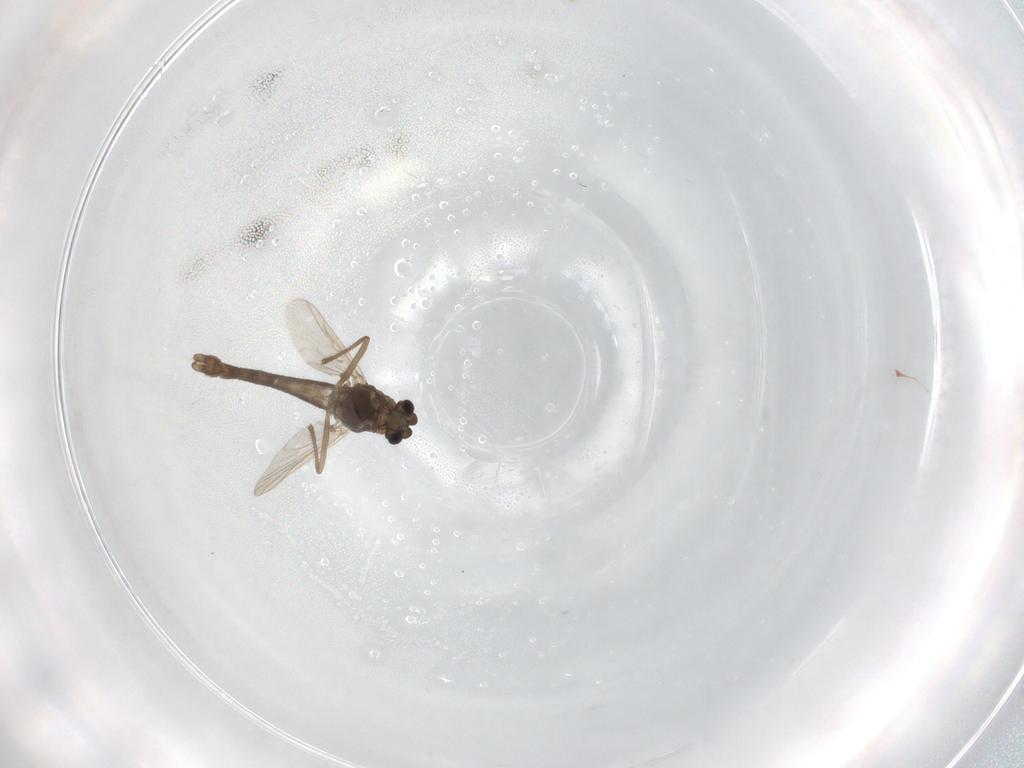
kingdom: Animalia
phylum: Arthropoda
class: Insecta
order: Diptera
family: Chironomidae
